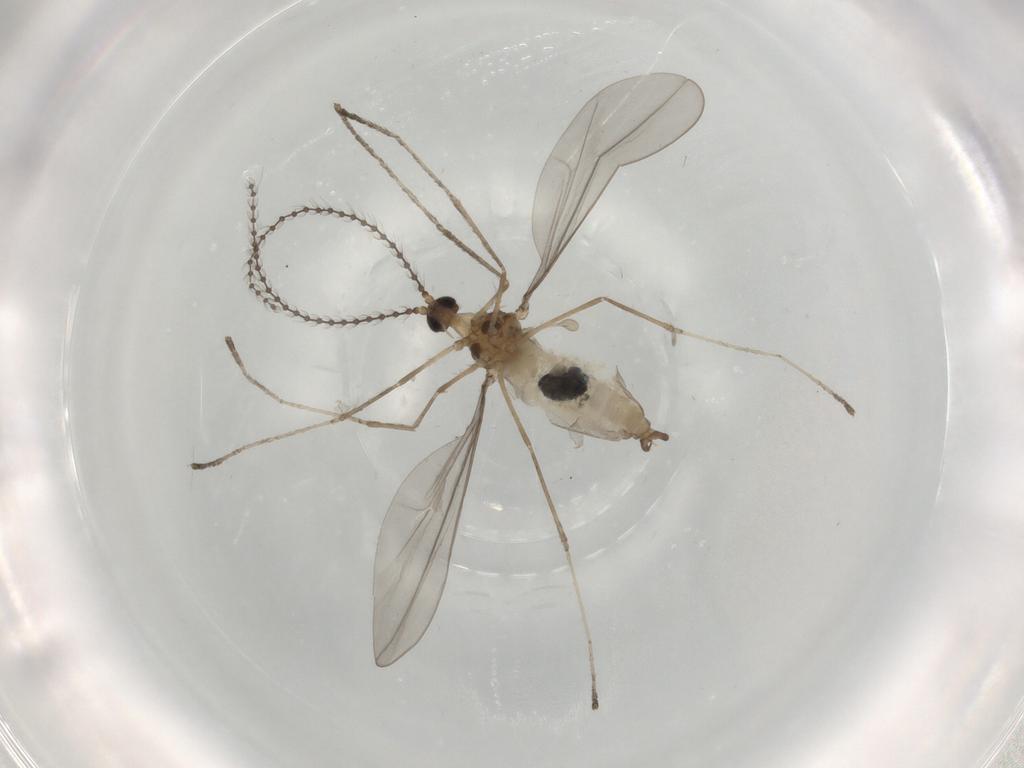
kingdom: Animalia
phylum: Arthropoda
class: Insecta
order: Diptera
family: Cecidomyiidae
